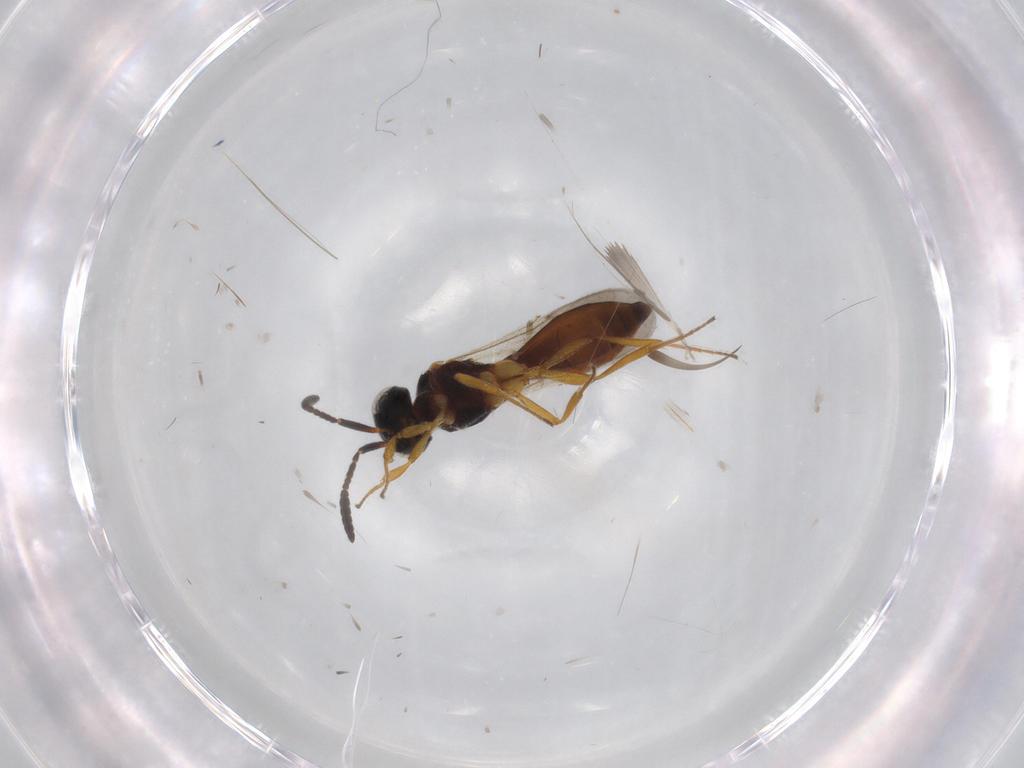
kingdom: Animalia
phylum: Arthropoda
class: Insecta
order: Hymenoptera
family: Scelionidae
